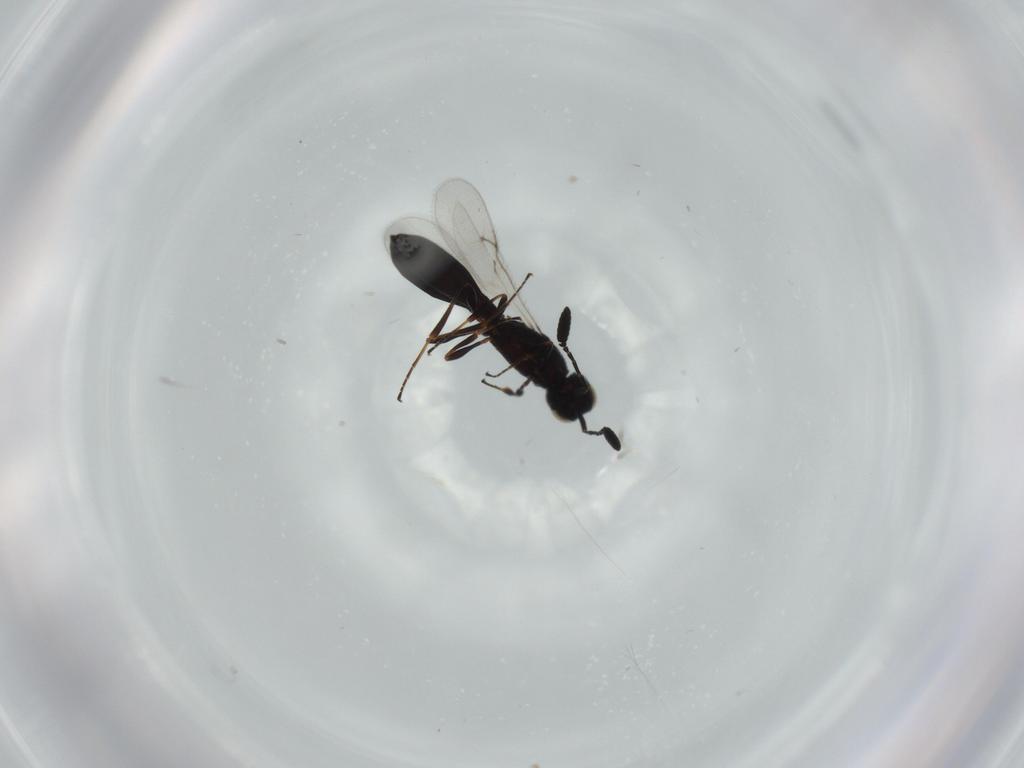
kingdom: Animalia
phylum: Arthropoda
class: Insecta
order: Hymenoptera
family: Scelionidae
